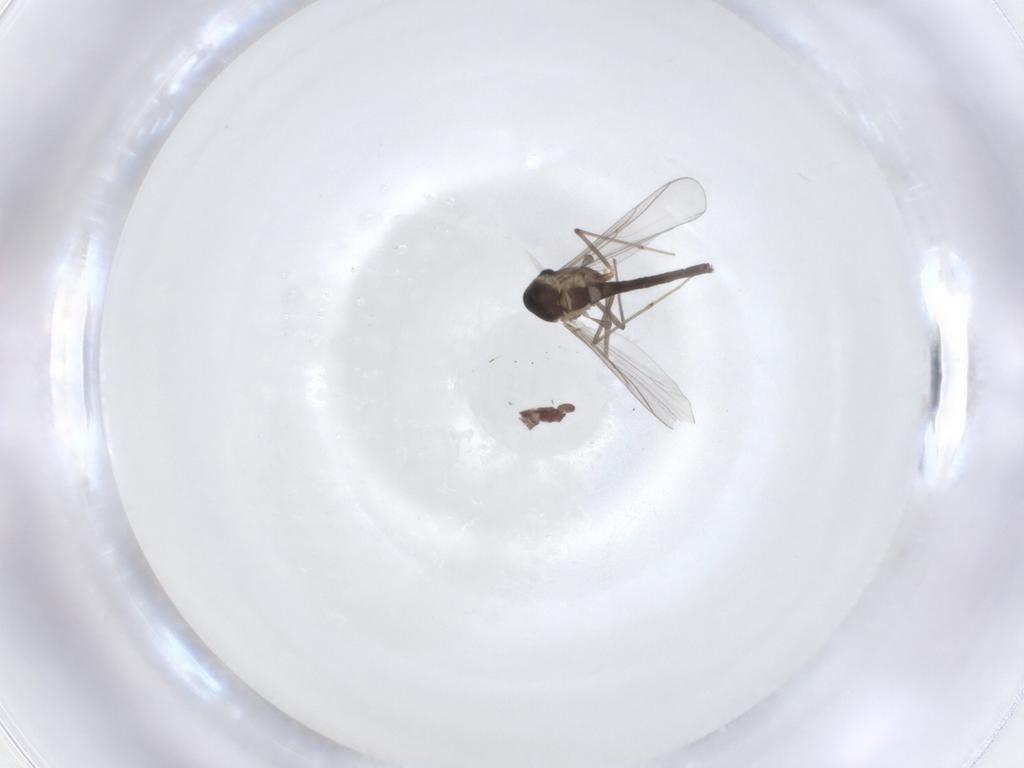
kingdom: Animalia
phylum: Arthropoda
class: Insecta
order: Diptera
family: Chironomidae
